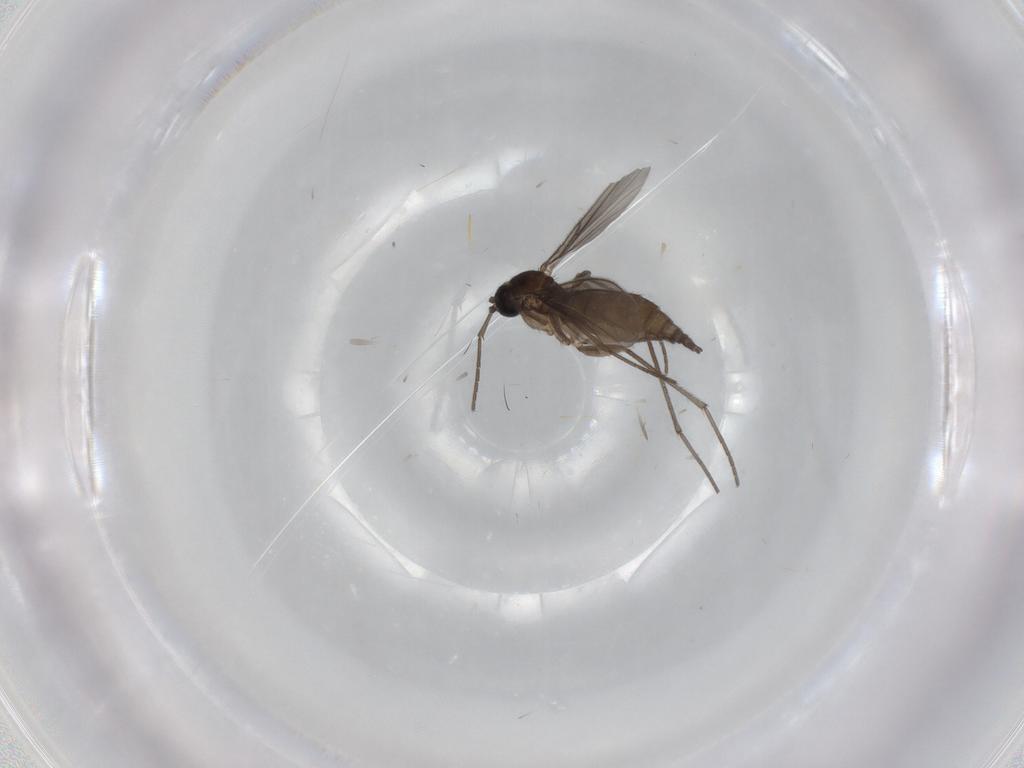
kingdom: Animalia
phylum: Arthropoda
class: Insecta
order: Diptera
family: Sciaridae
